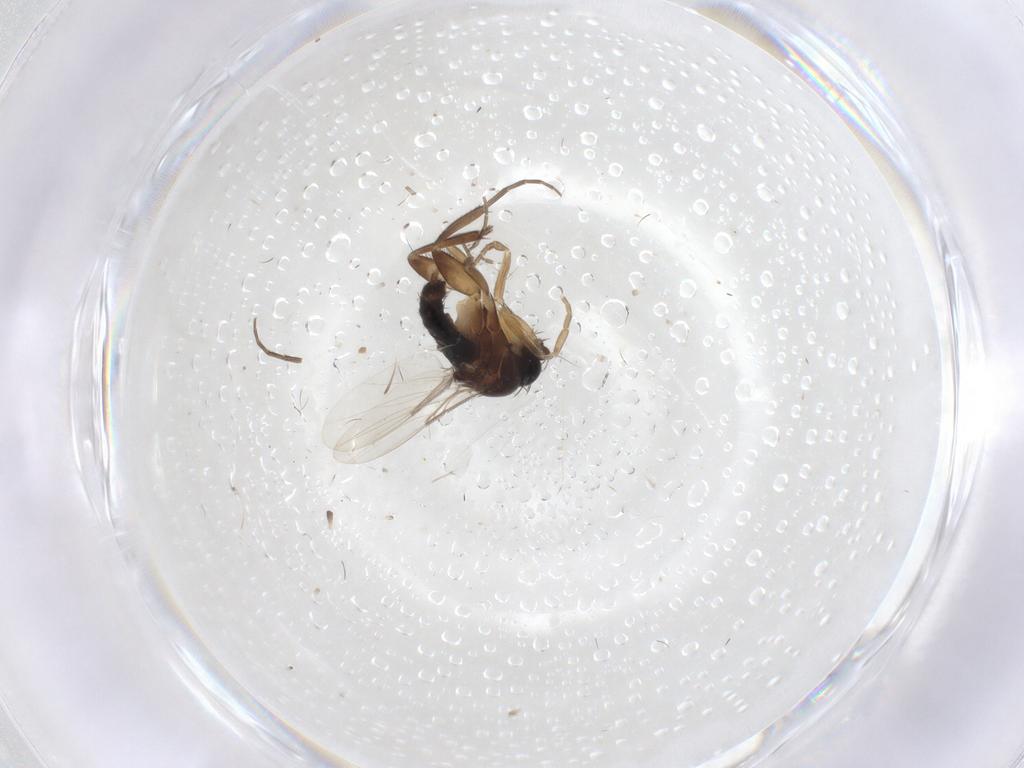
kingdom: Animalia
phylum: Arthropoda
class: Insecta
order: Diptera
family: Phoridae
